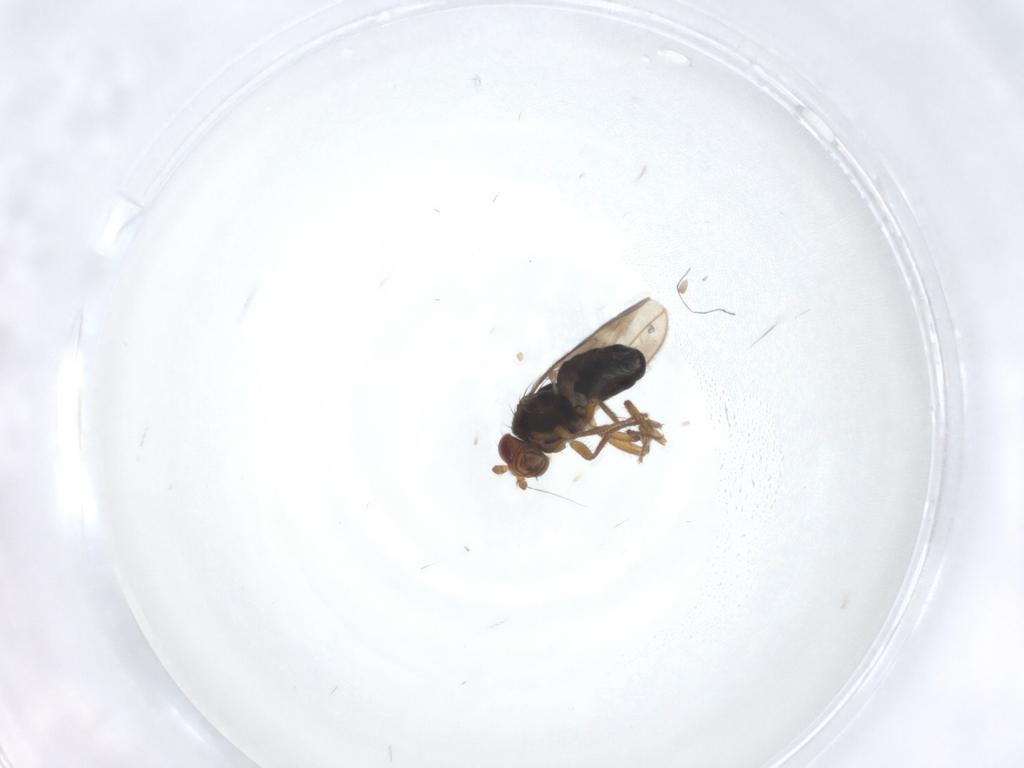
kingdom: Animalia
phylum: Arthropoda
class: Insecta
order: Diptera
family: Sphaeroceridae
